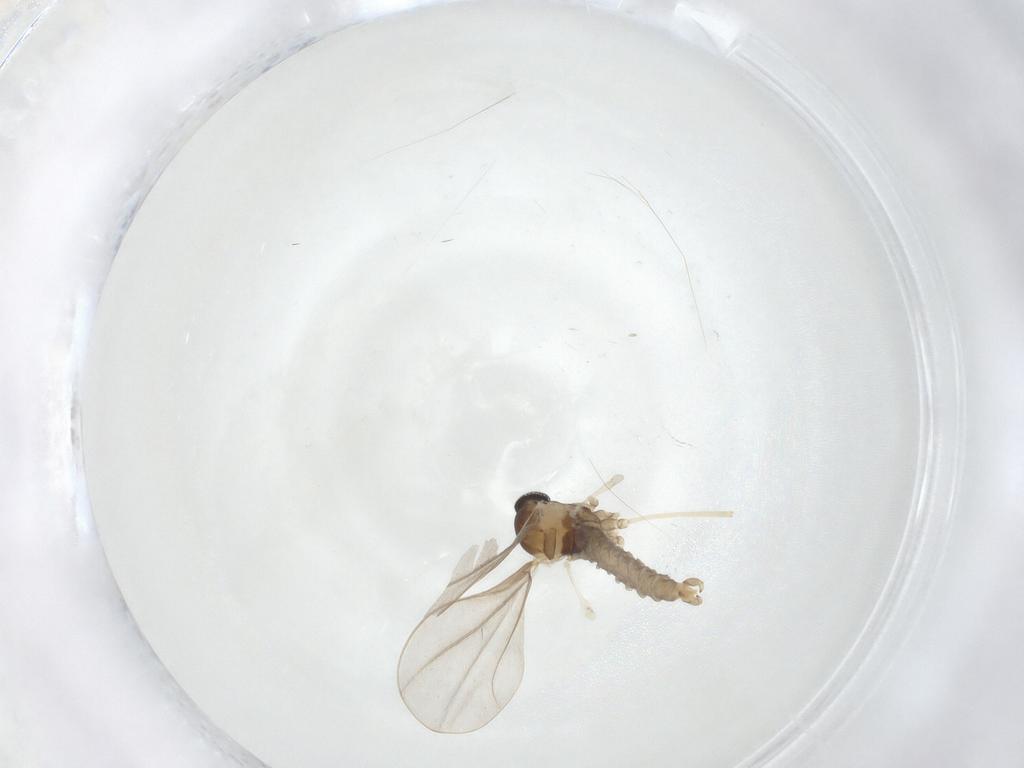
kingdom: Animalia
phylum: Arthropoda
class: Insecta
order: Diptera
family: Cecidomyiidae
